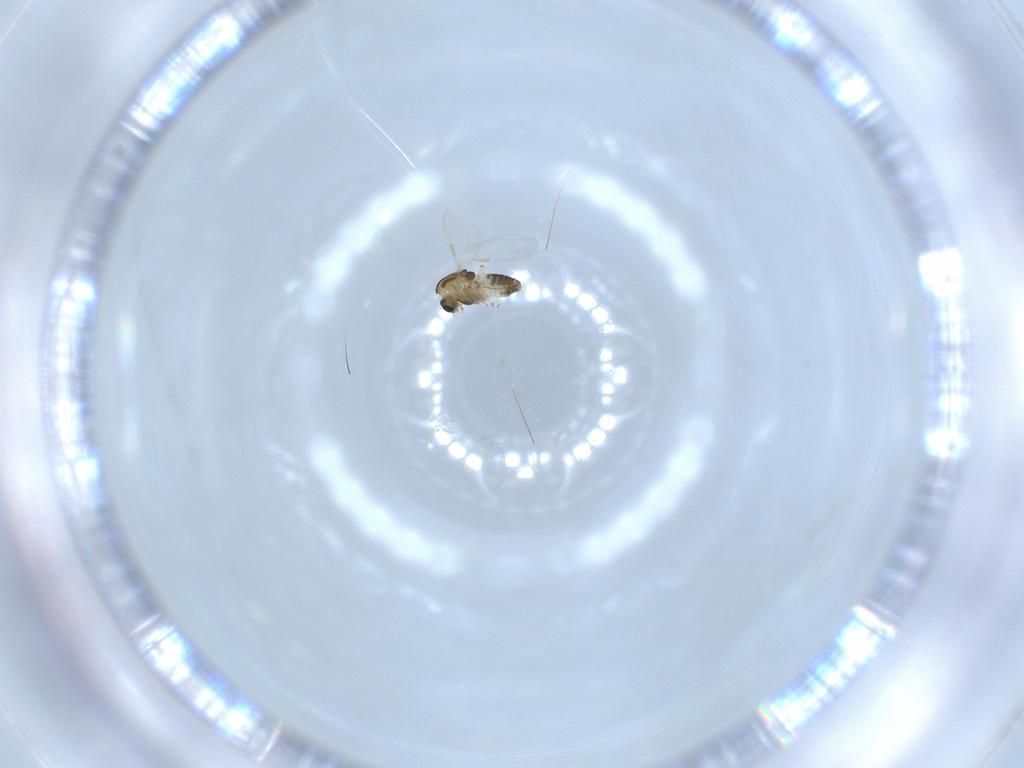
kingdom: Animalia
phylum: Arthropoda
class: Insecta
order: Diptera
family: Chironomidae
